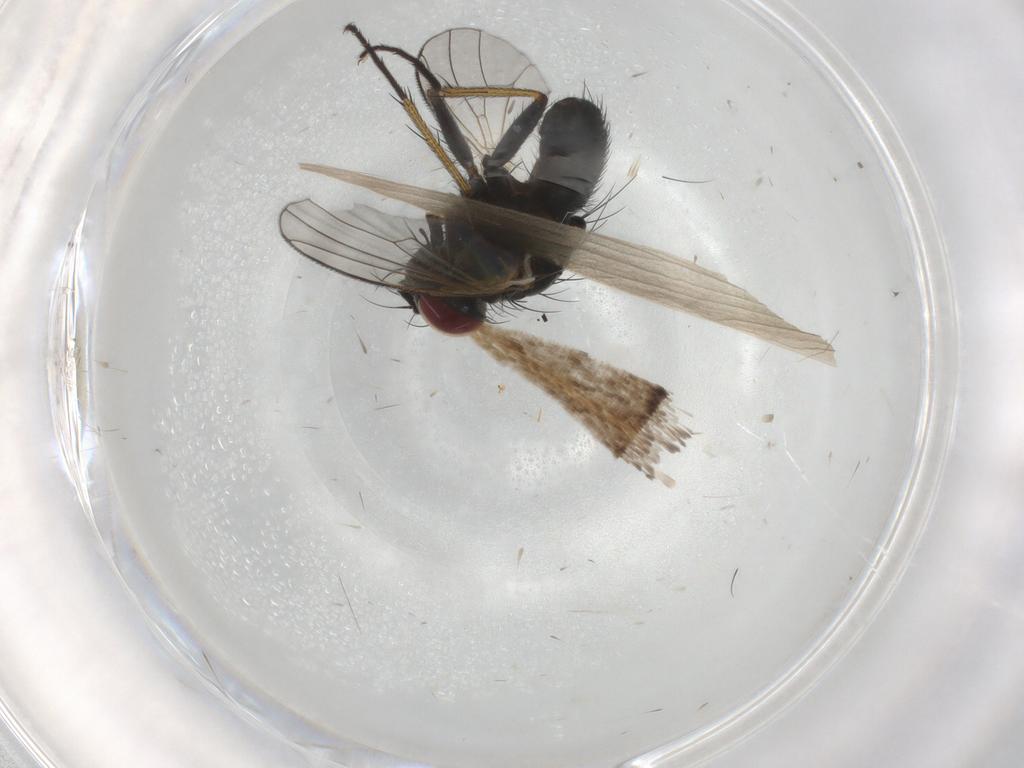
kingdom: Animalia
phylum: Arthropoda
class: Insecta
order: Diptera
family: Muscidae
